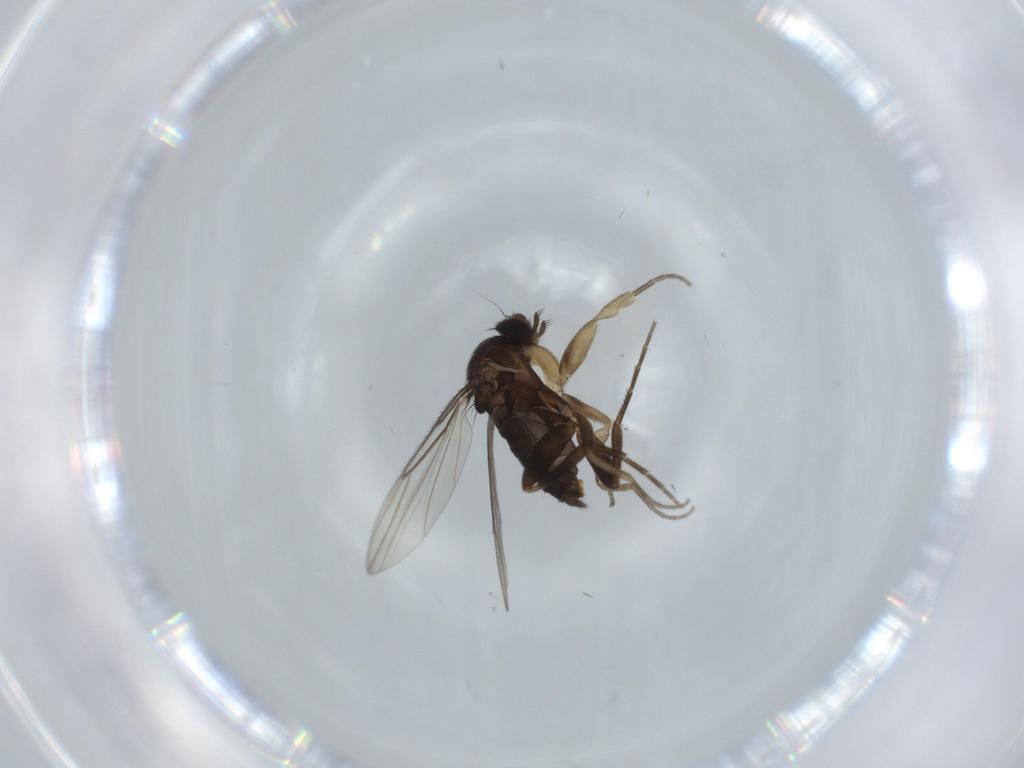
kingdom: Animalia
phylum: Arthropoda
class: Insecta
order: Diptera
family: Phoridae
